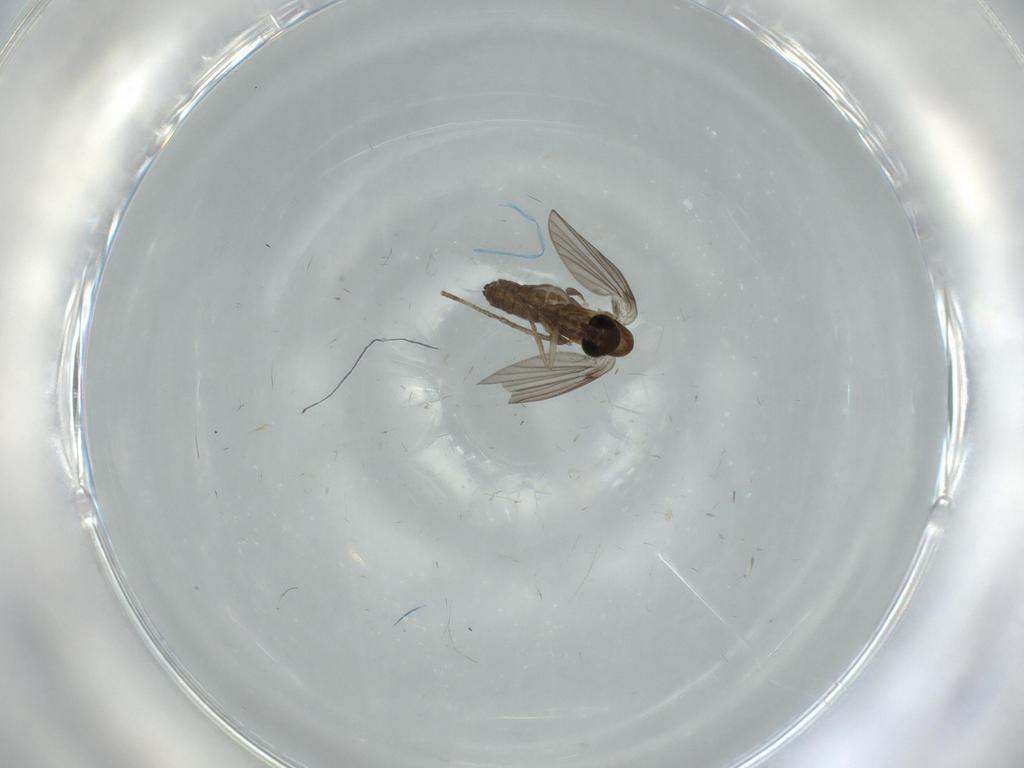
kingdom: Animalia
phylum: Arthropoda
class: Insecta
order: Diptera
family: Psychodidae
